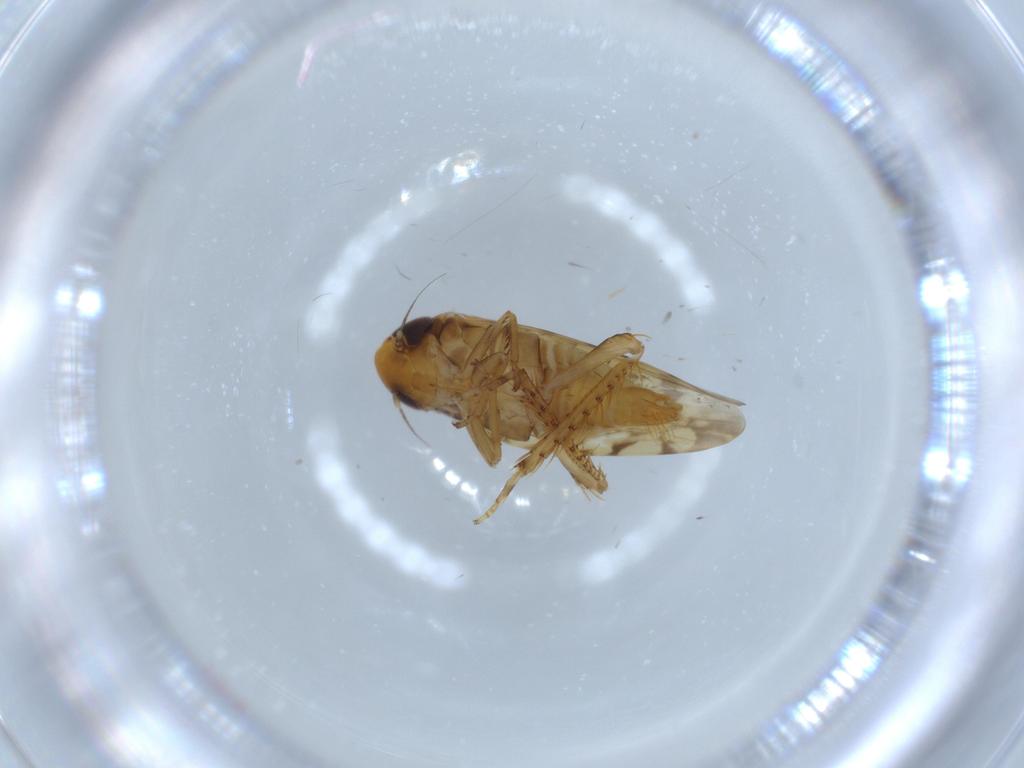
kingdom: Animalia
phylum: Arthropoda
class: Insecta
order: Hemiptera
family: Cicadellidae
